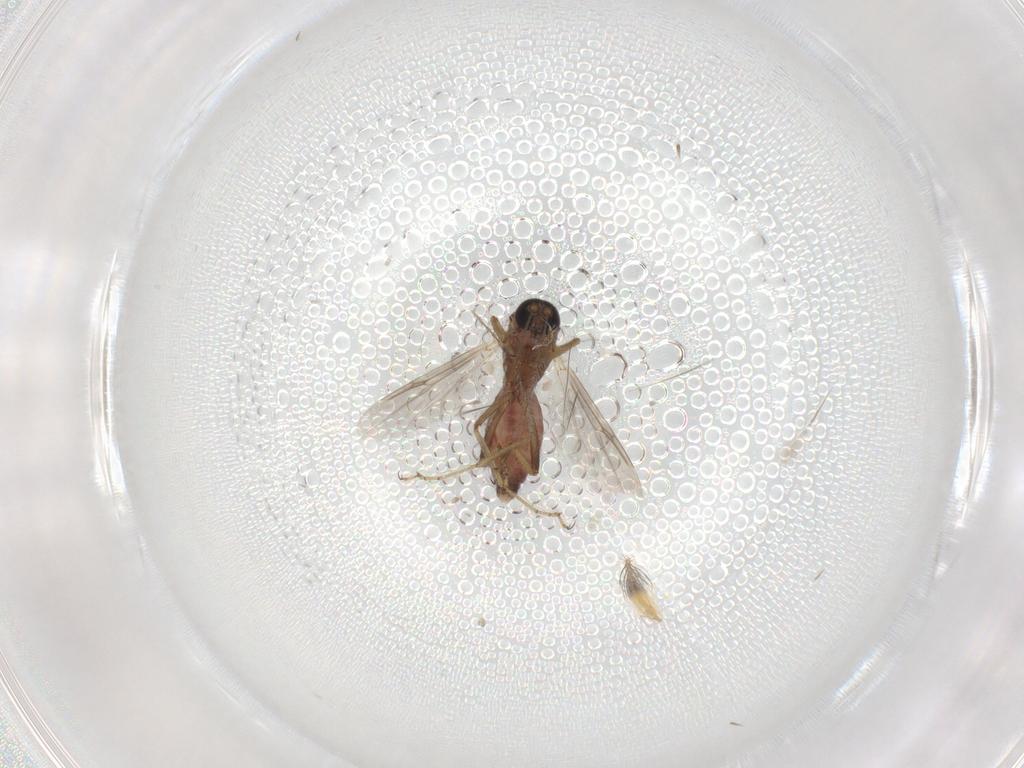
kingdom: Animalia
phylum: Arthropoda
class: Insecta
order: Diptera
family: Ceratopogonidae
